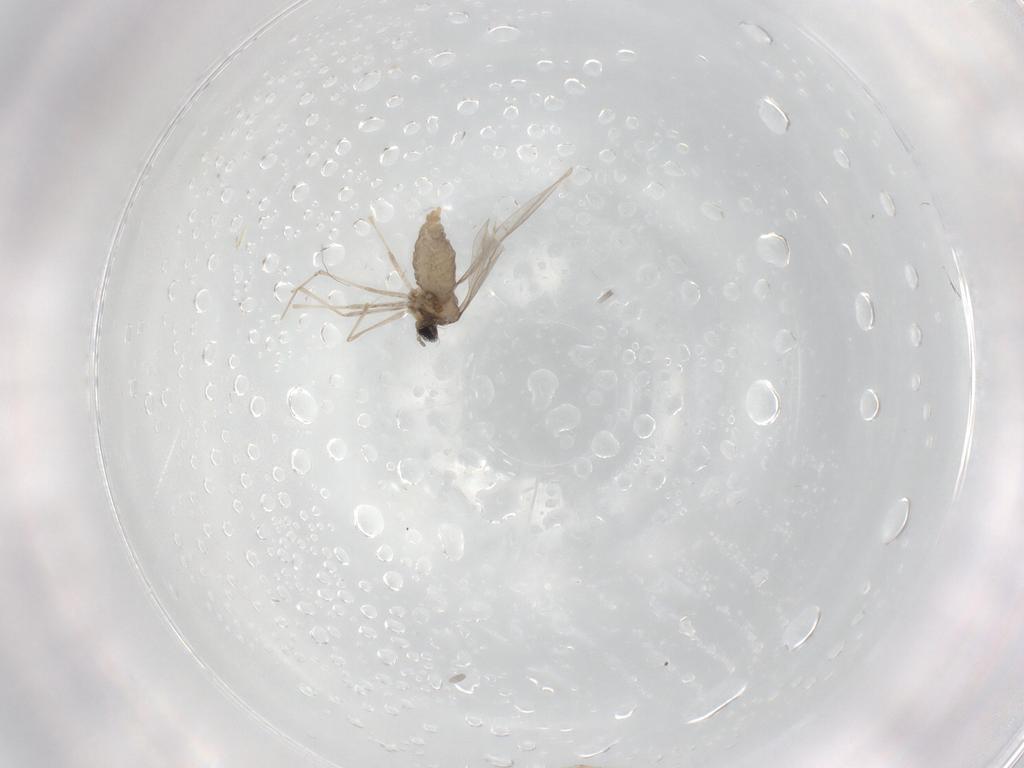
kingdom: Animalia
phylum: Arthropoda
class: Insecta
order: Diptera
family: Chironomidae
